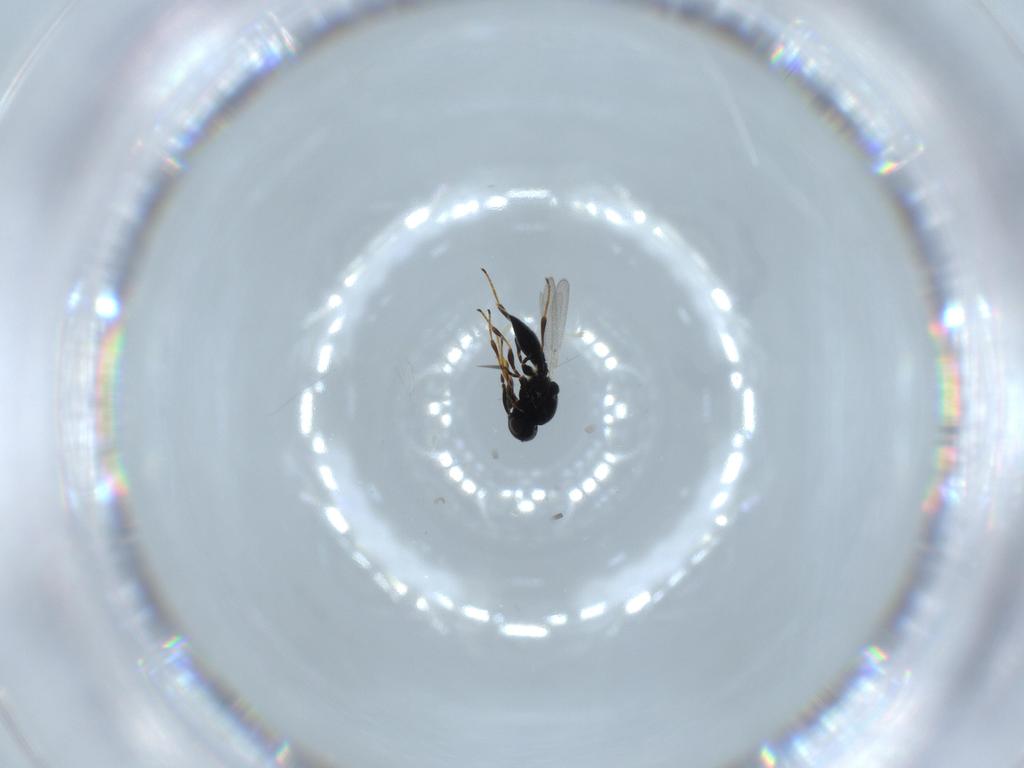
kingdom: Animalia
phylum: Arthropoda
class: Insecta
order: Hymenoptera
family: Platygastridae
